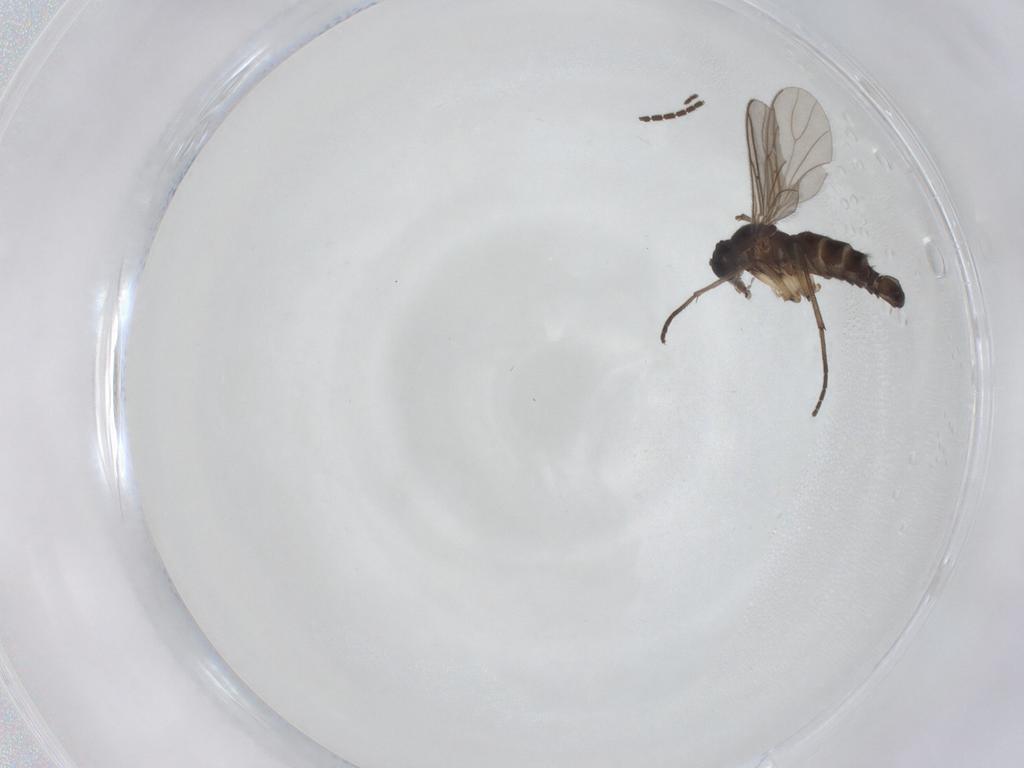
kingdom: Animalia
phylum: Arthropoda
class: Insecta
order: Diptera
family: Sciaridae
